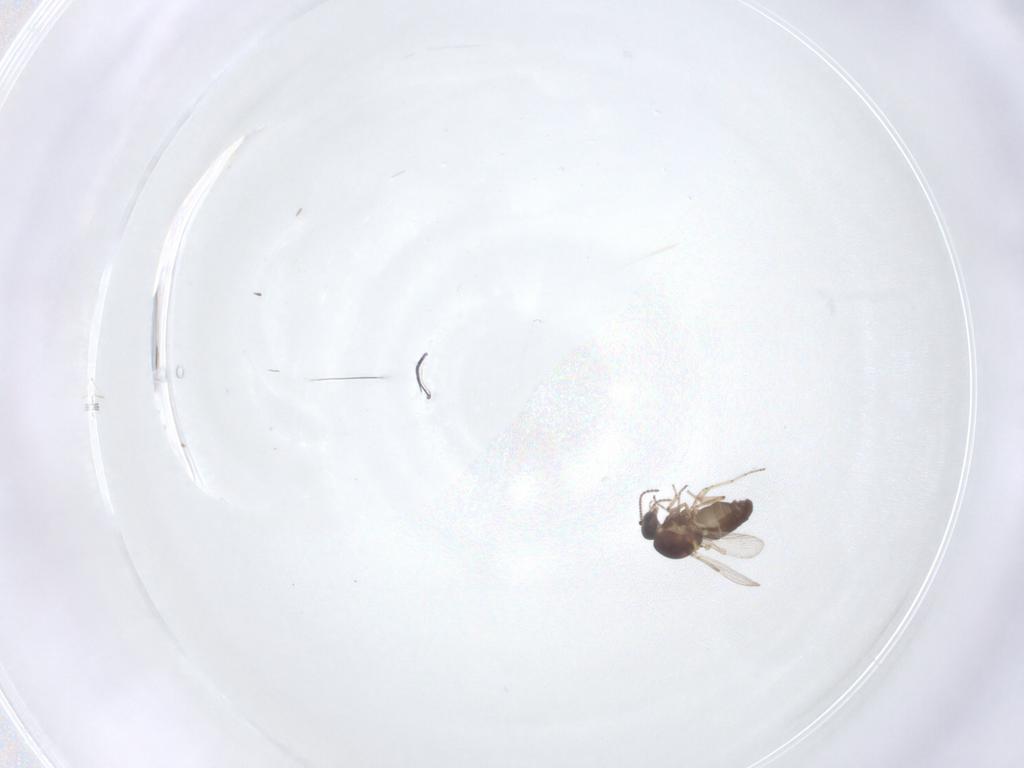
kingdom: Animalia
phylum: Arthropoda
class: Insecta
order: Diptera
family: Ceratopogonidae
